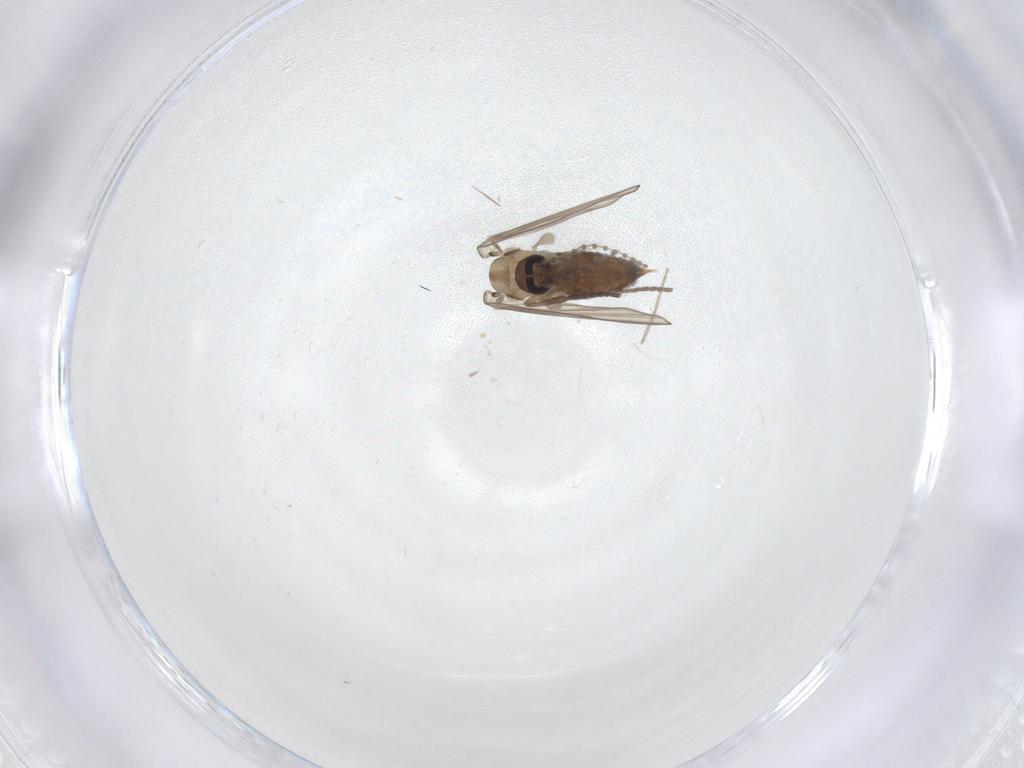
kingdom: Animalia
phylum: Arthropoda
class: Insecta
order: Diptera
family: Psychodidae
